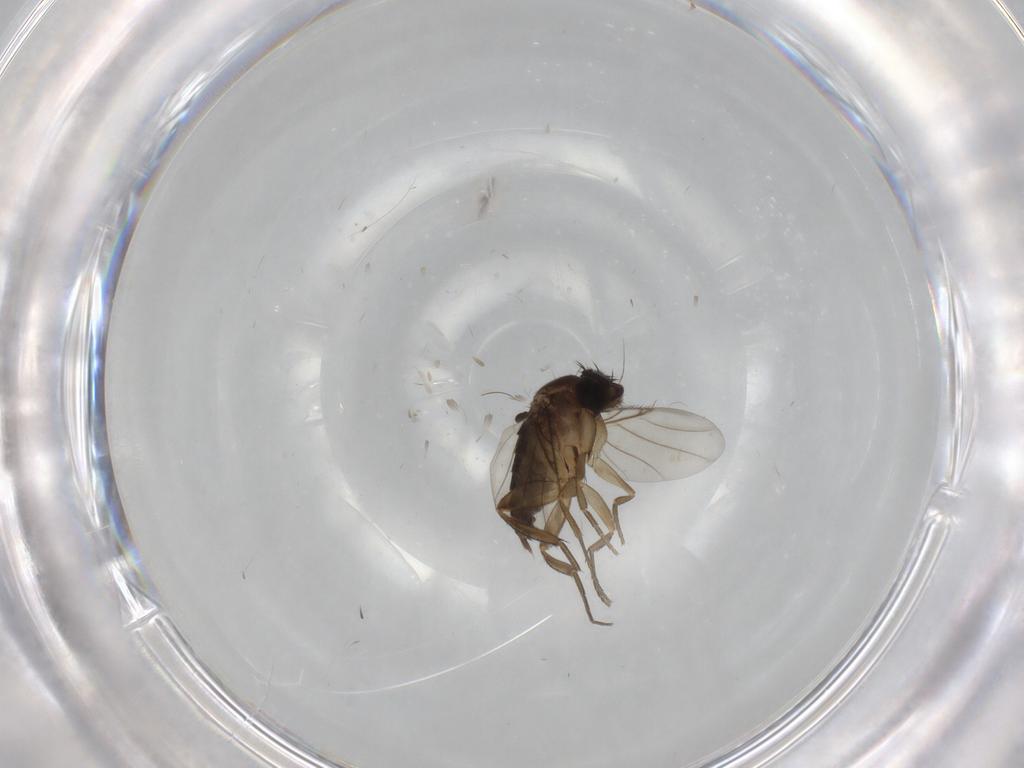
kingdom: Animalia
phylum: Arthropoda
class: Insecta
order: Diptera
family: Phoridae
